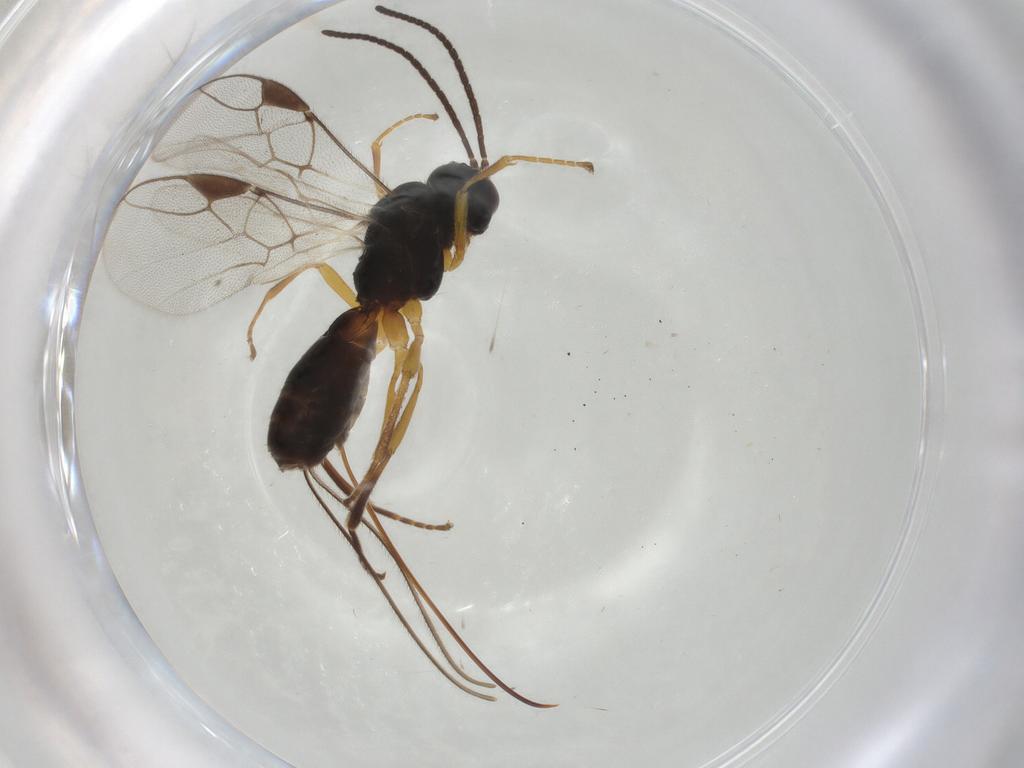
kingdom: Animalia
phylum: Arthropoda
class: Insecta
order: Hymenoptera
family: Braconidae
